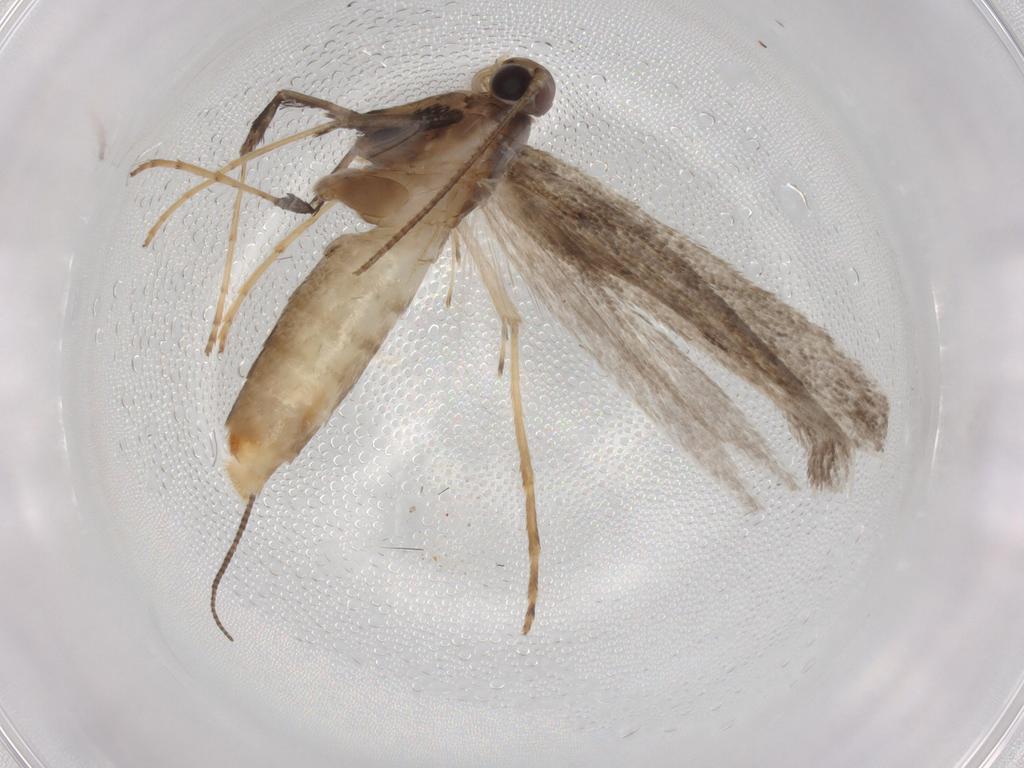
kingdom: Animalia
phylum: Arthropoda
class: Insecta
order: Lepidoptera
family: Gracillariidae
